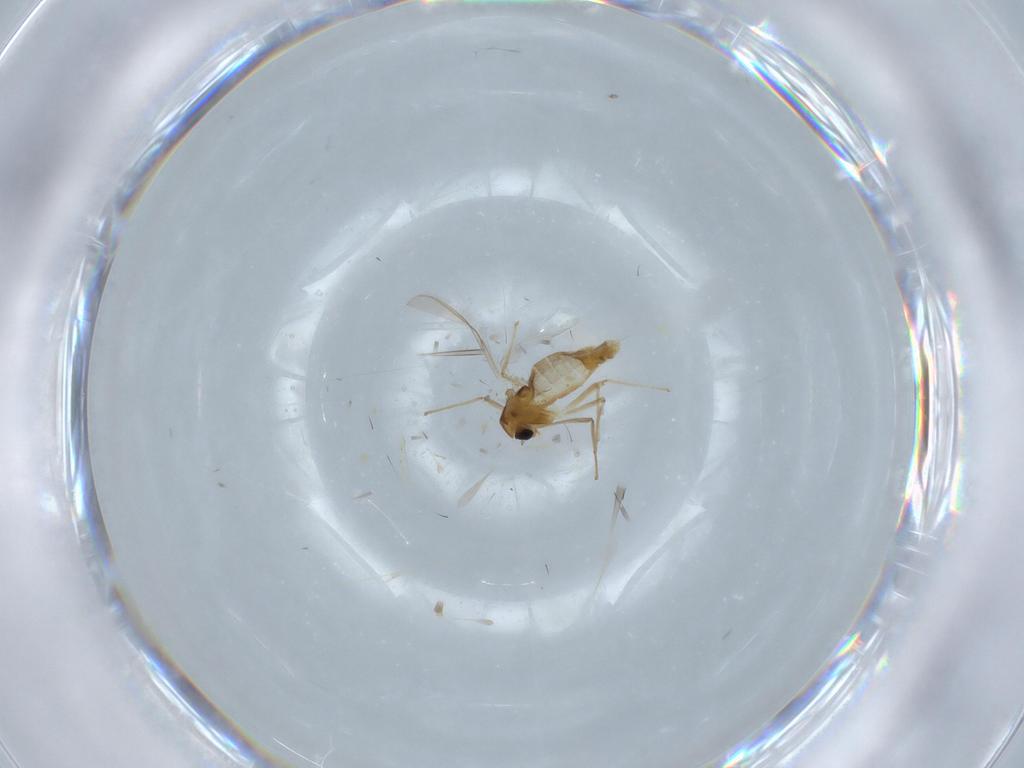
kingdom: Animalia
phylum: Arthropoda
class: Insecta
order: Diptera
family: Chironomidae
